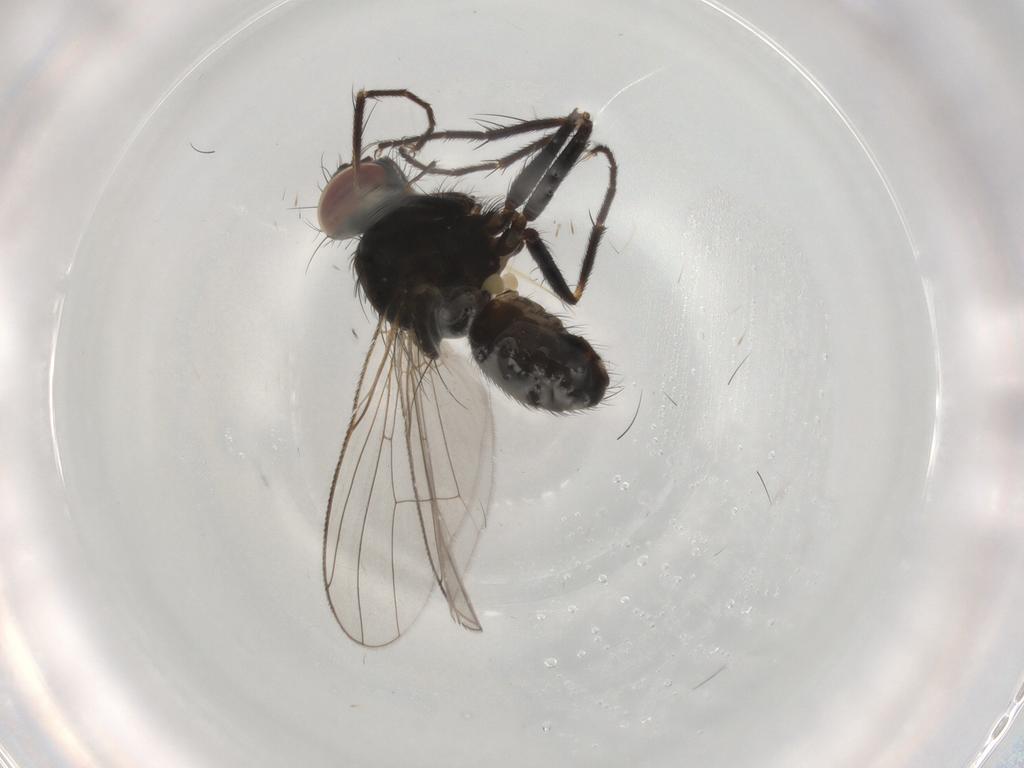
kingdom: Animalia
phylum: Arthropoda
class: Insecta
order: Diptera
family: Muscidae
